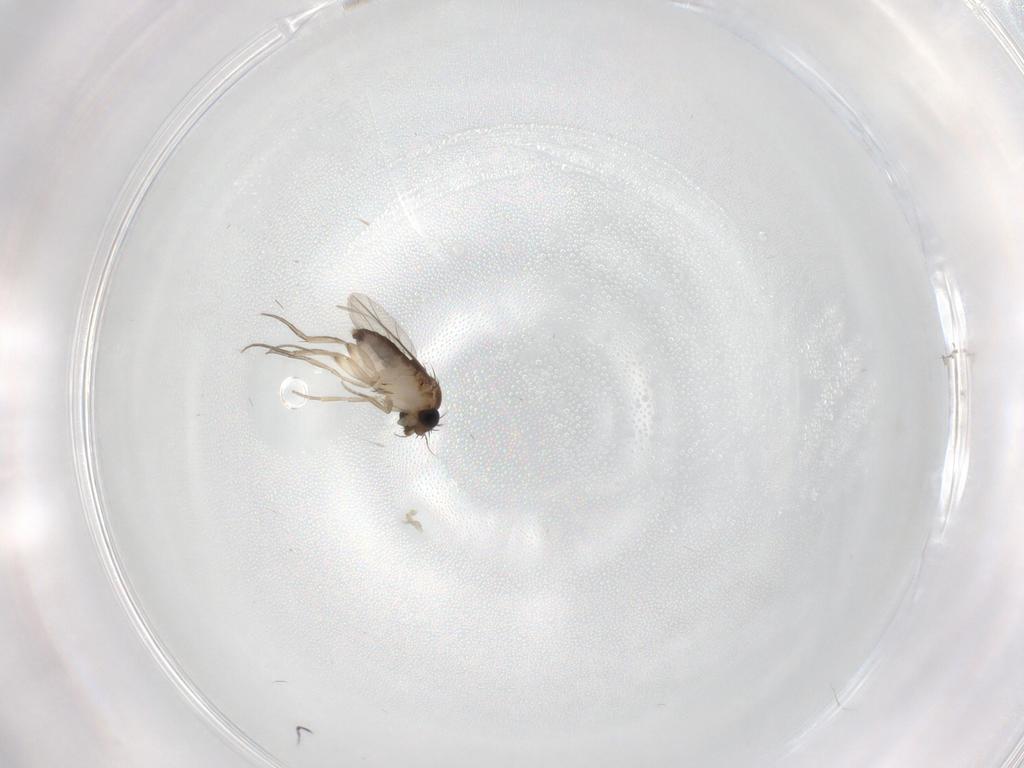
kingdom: Animalia
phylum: Arthropoda
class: Insecta
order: Diptera
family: Phoridae
